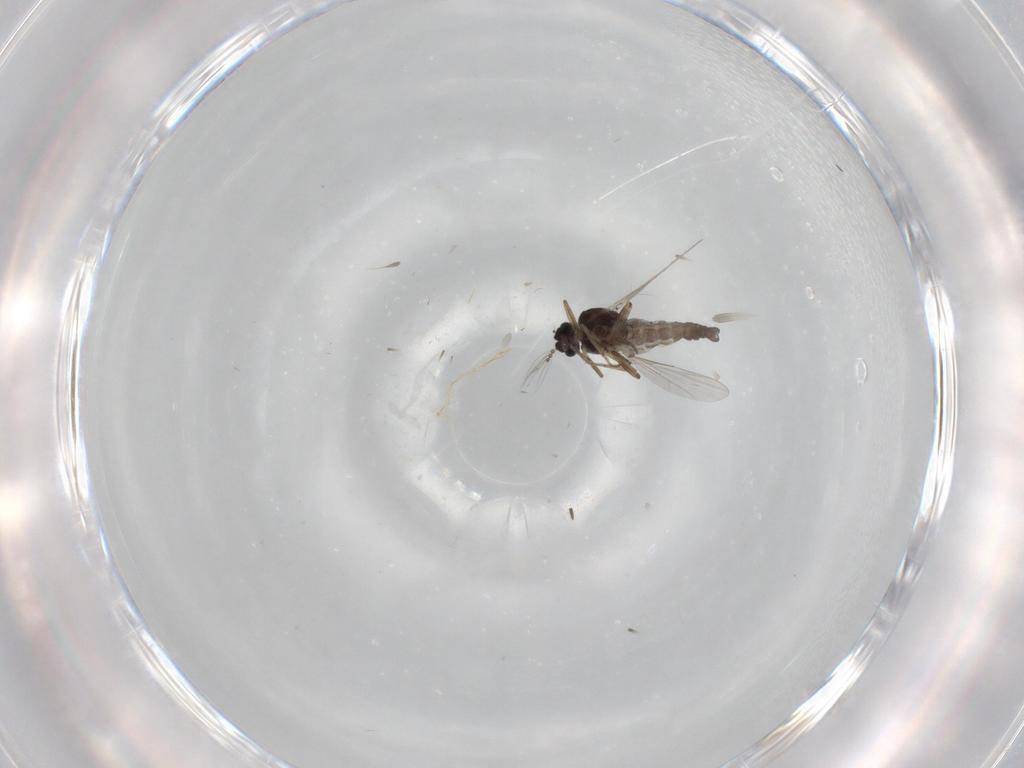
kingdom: Animalia
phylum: Arthropoda
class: Insecta
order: Diptera
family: Ceratopogonidae
